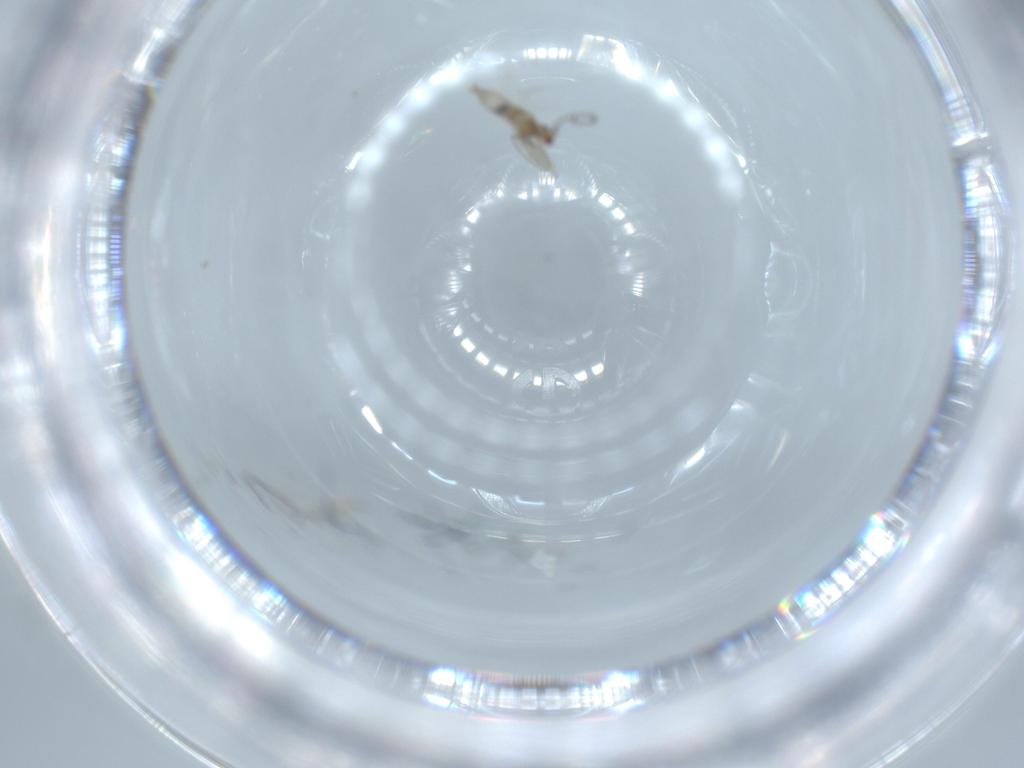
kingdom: Animalia
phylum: Arthropoda
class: Insecta
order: Diptera
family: Cecidomyiidae
